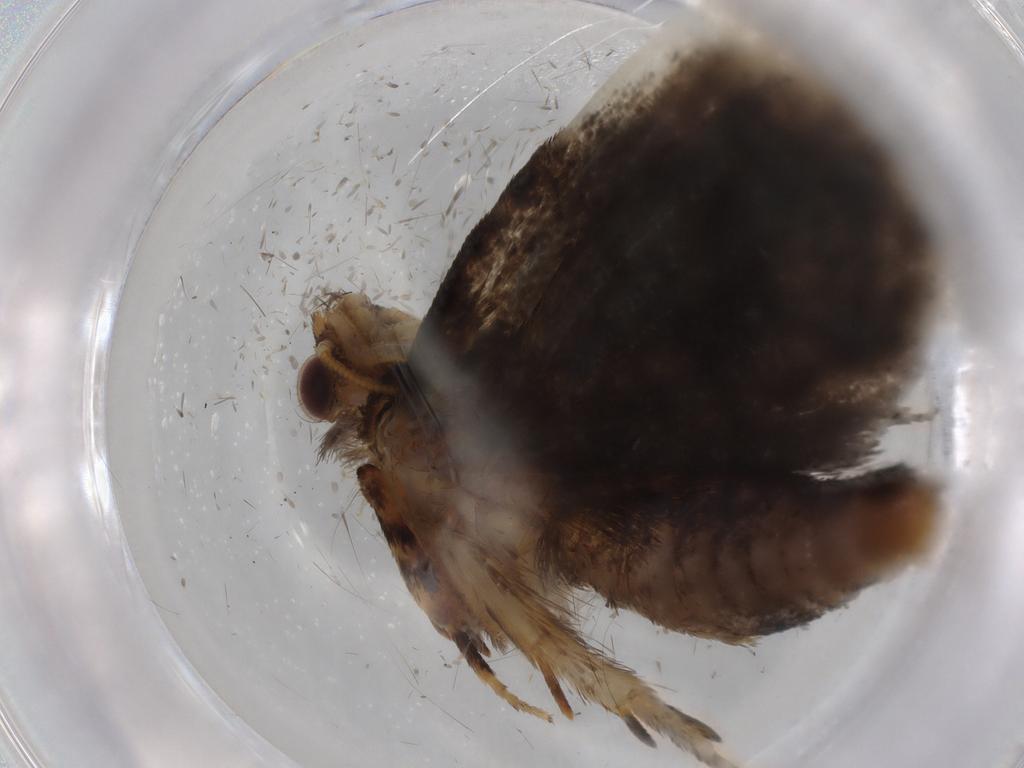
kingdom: Animalia
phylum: Arthropoda
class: Insecta
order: Lepidoptera
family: Tineidae
